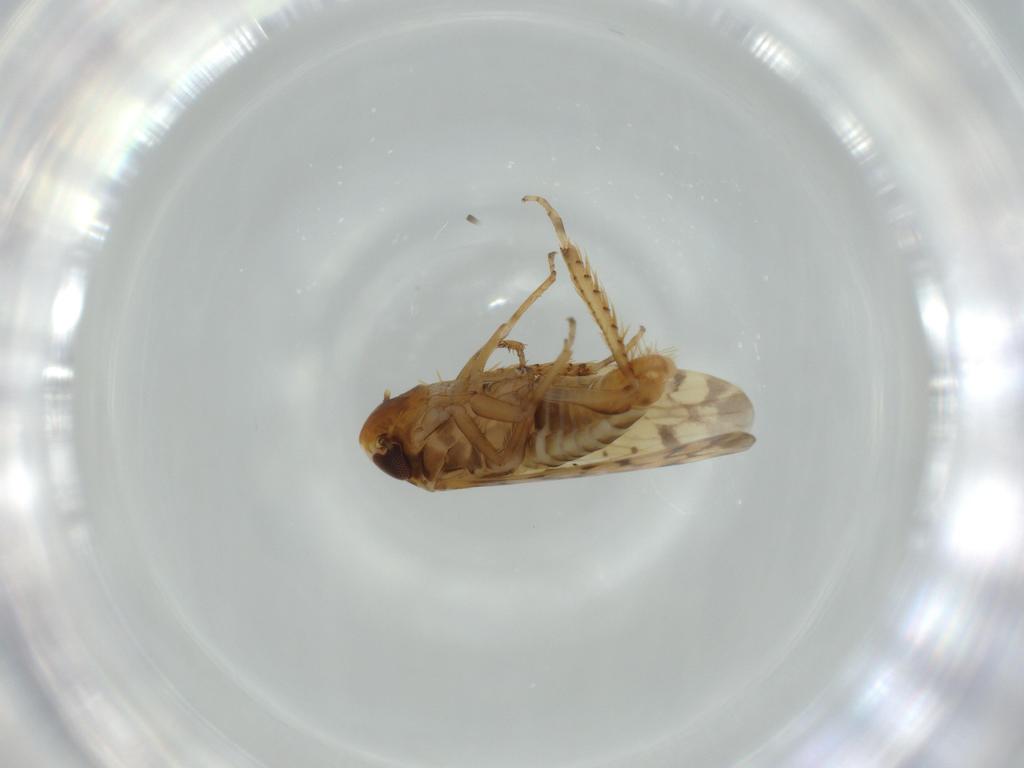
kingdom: Animalia
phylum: Arthropoda
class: Insecta
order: Hemiptera
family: Cicadellidae
